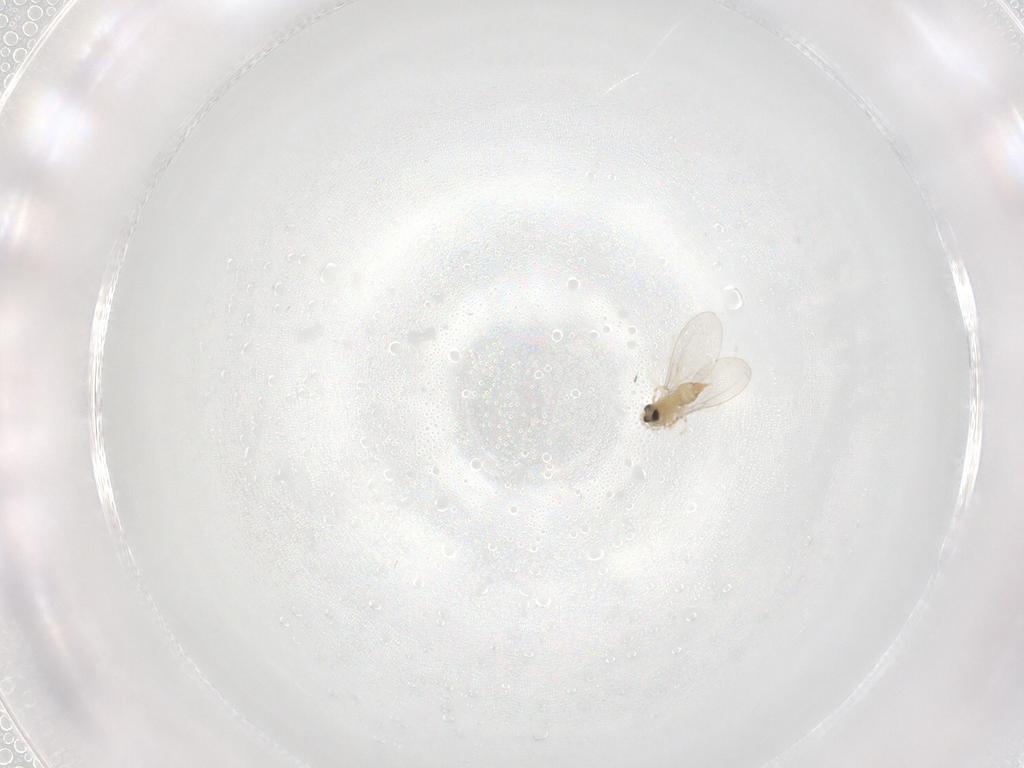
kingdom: Animalia
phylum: Arthropoda
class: Insecta
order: Diptera
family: Cecidomyiidae
